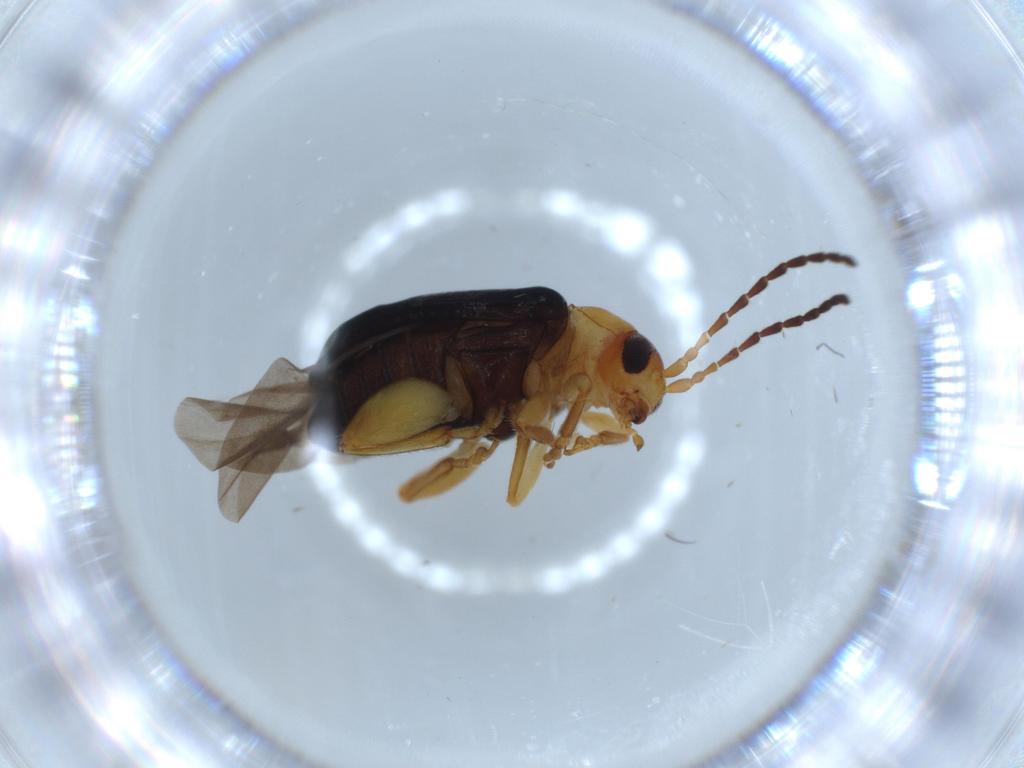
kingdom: Animalia
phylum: Arthropoda
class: Insecta
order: Coleoptera
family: Chrysomelidae
